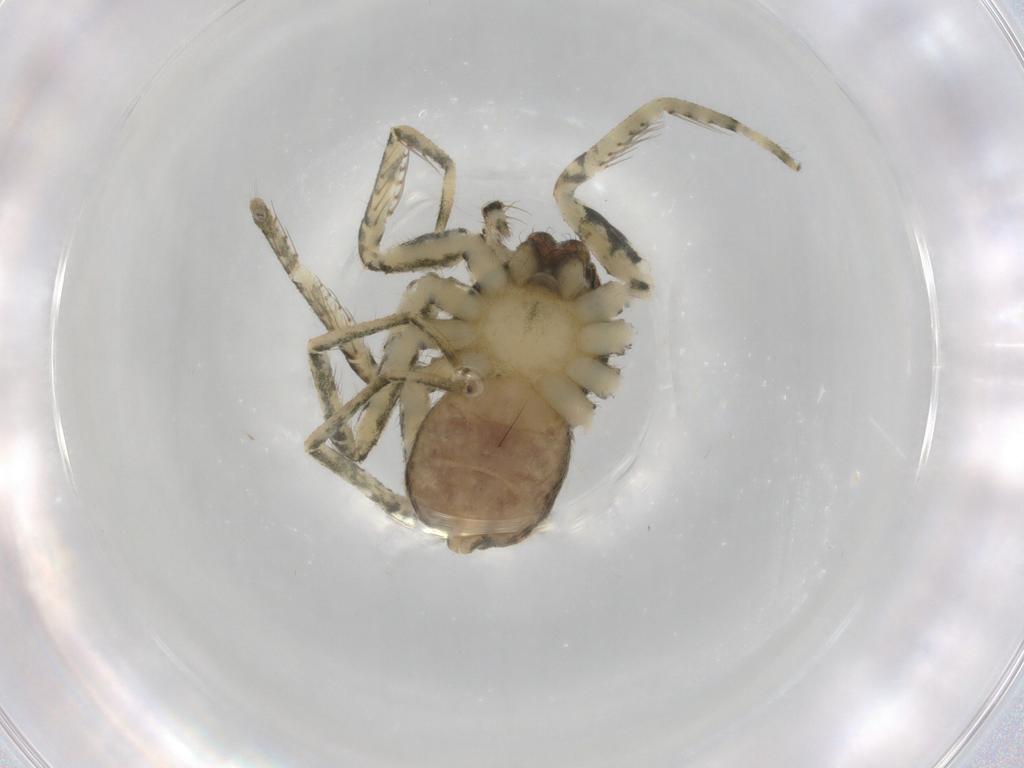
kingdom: Animalia
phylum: Arthropoda
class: Arachnida
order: Araneae
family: Selenopidae
